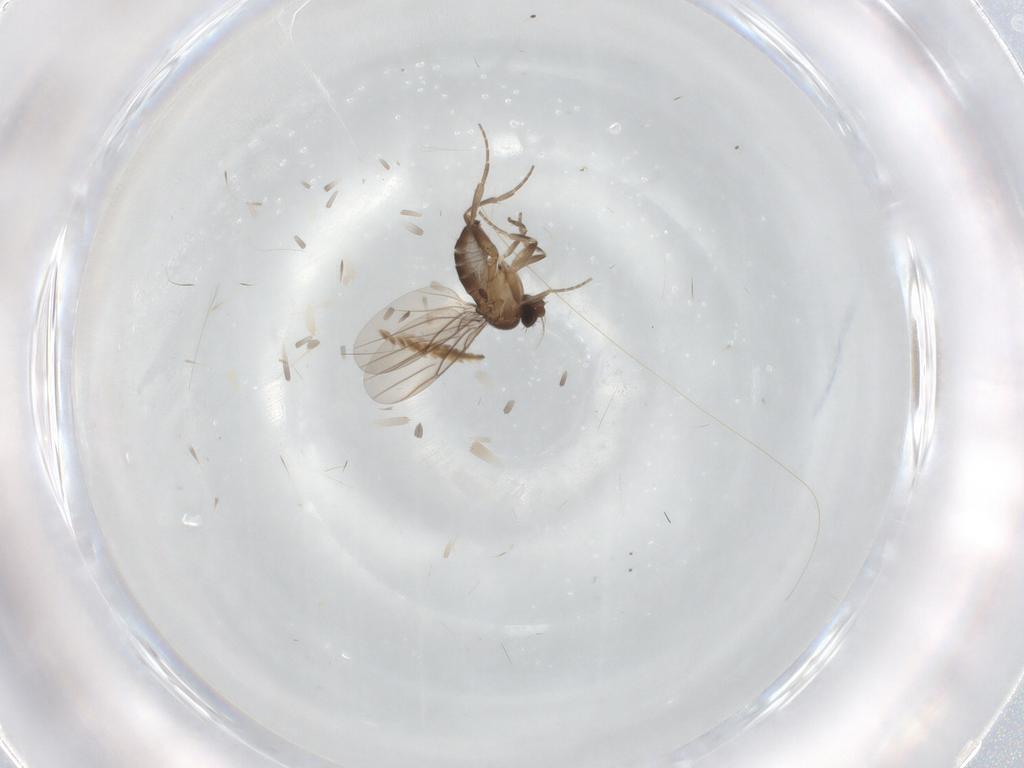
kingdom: Animalia
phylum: Arthropoda
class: Insecta
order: Diptera
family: Phoridae
